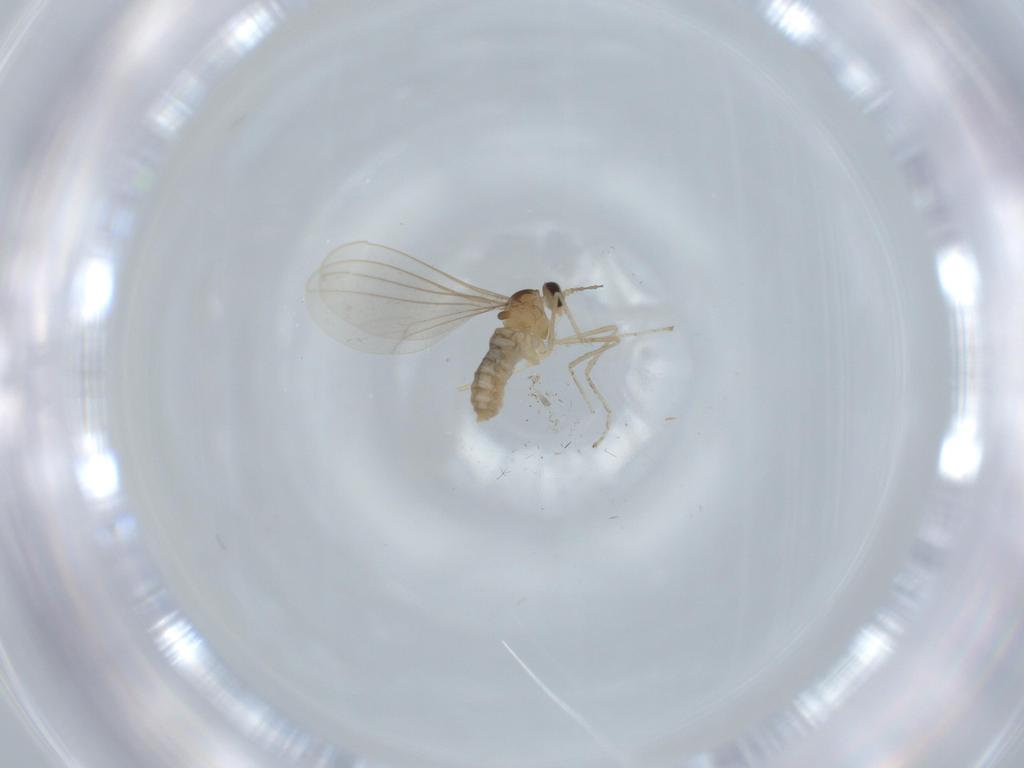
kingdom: Animalia
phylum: Arthropoda
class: Insecta
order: Diptera
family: Cecidomyiidae
